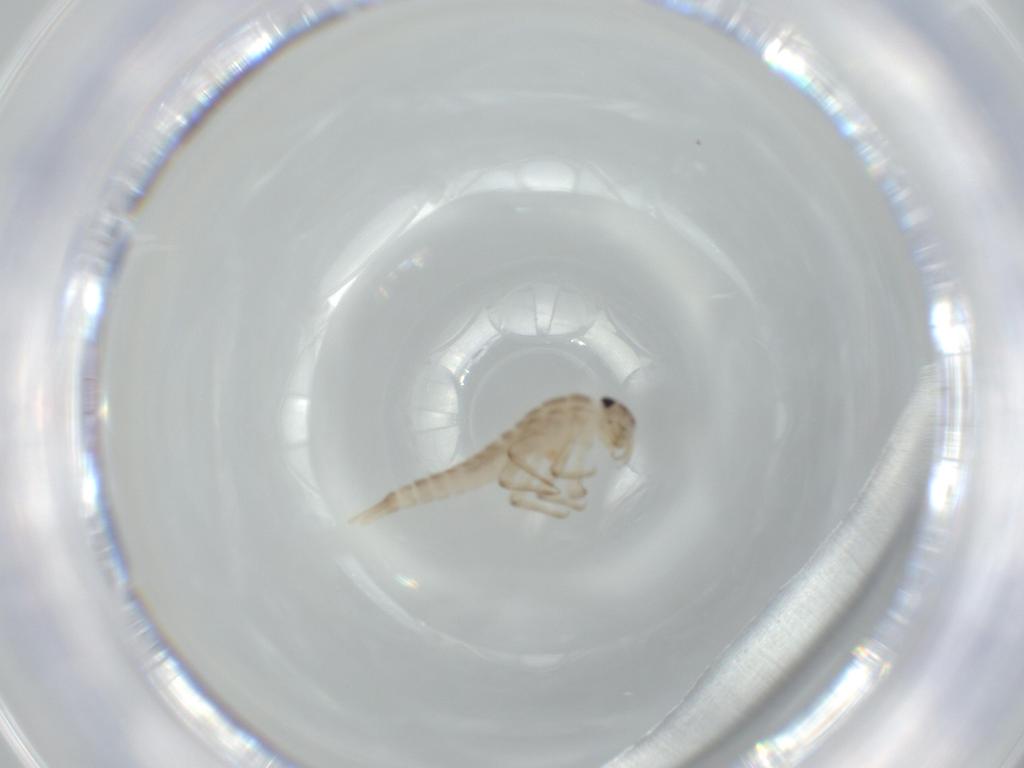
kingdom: Animalia
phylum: Arthropoda
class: Insecta
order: Ephemeroptera
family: Baetidae
